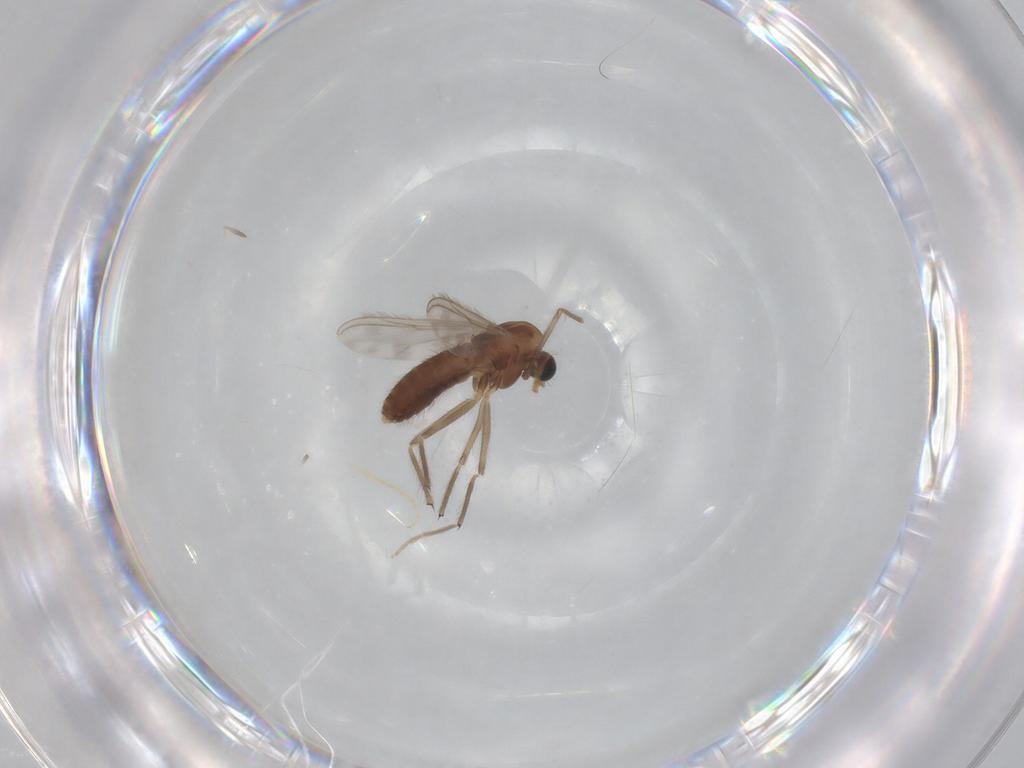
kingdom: Animalia
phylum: Arthropoda
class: Insecta
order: Diptera
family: Chironomidae
